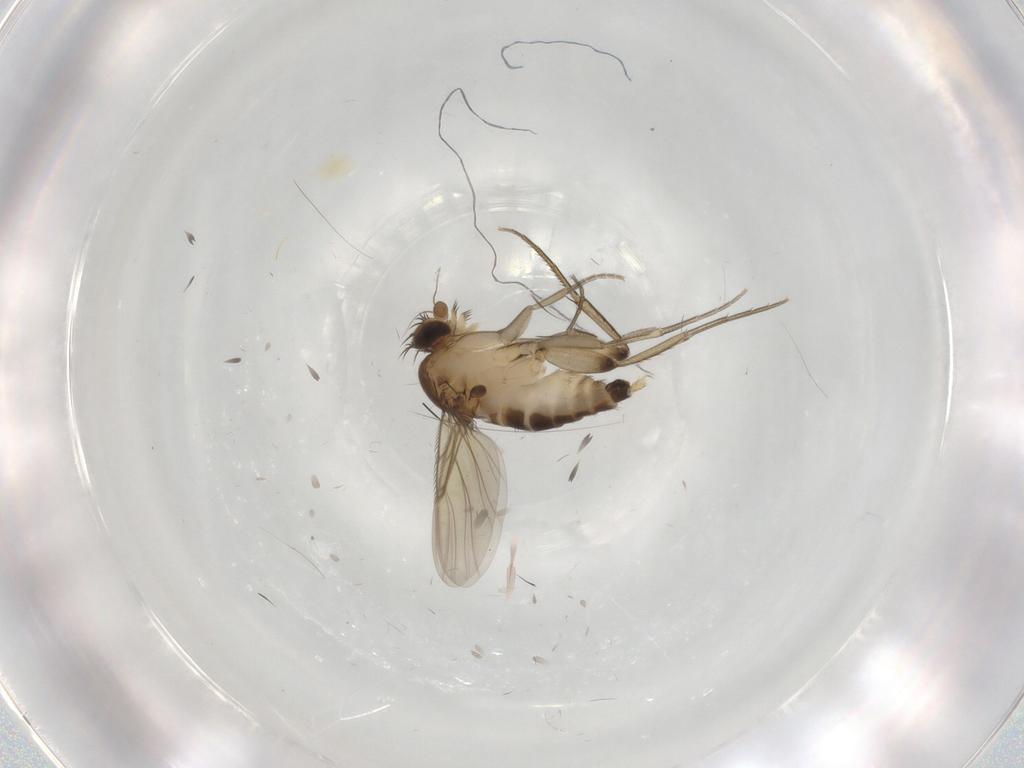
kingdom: Animalia
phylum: Arthropoda
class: Insecta
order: Diptera
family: Phoridae
